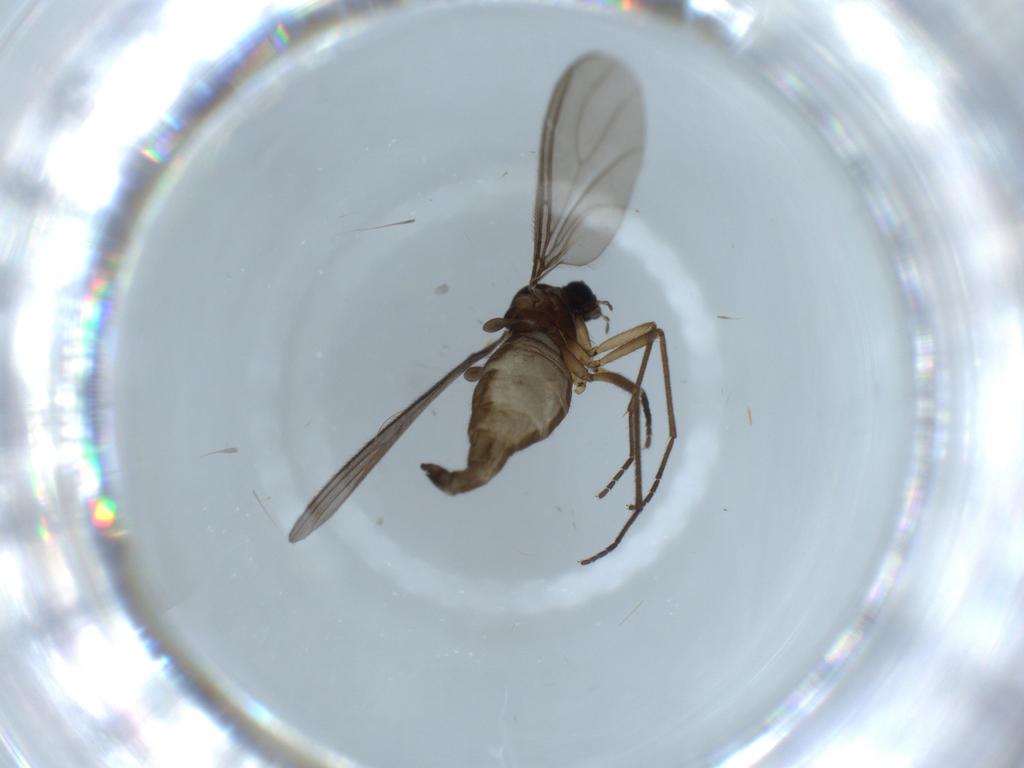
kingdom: Animalia
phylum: Arthropoda
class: Insecta
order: Diptera
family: Sciaridae
